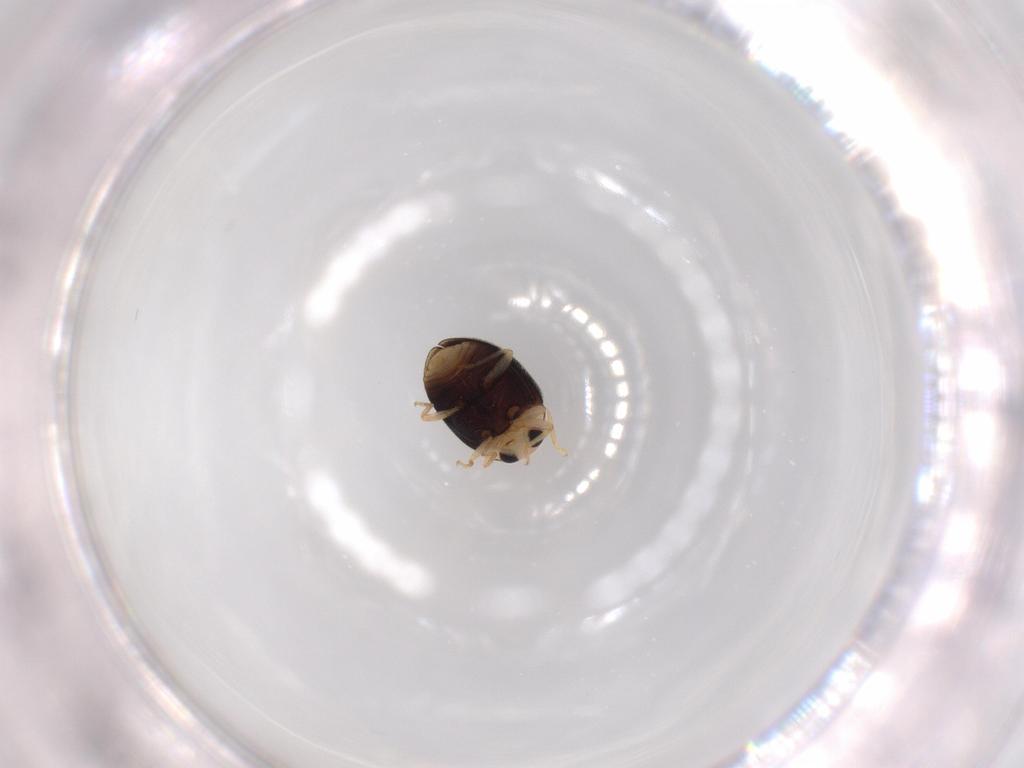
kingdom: Animalia
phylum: Arthropoda
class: Insecta
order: Coleoptera
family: Coccinellidae
